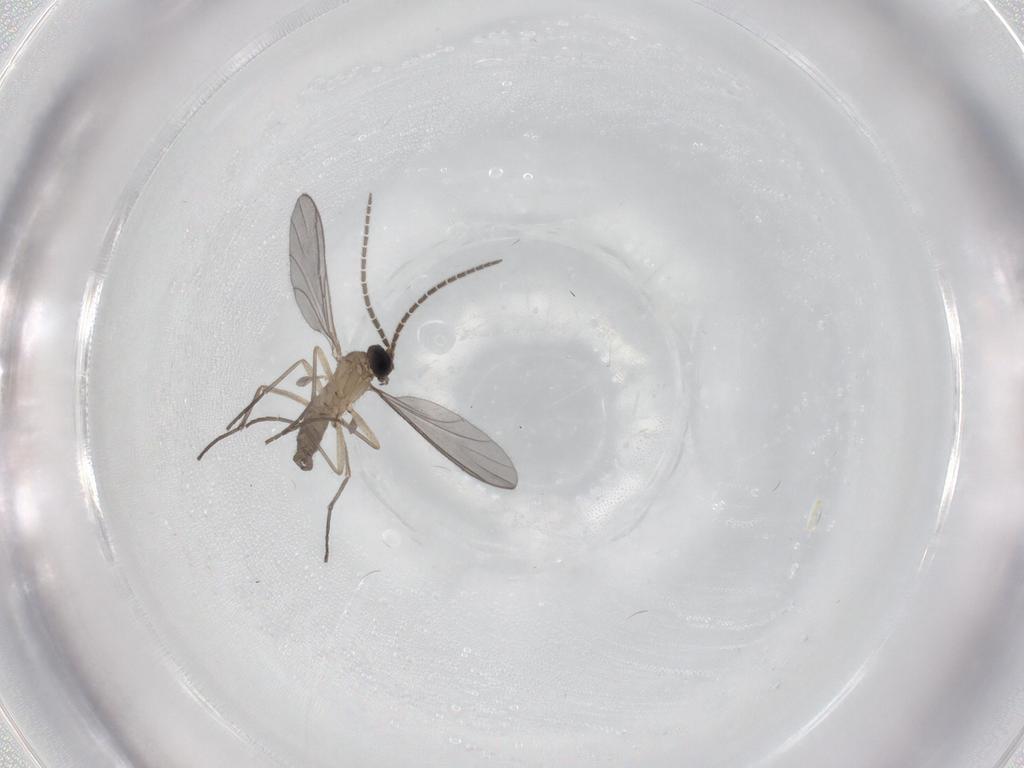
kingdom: Animalia
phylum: Arthropoda
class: Insecta
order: Diptera
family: Sciaridae
